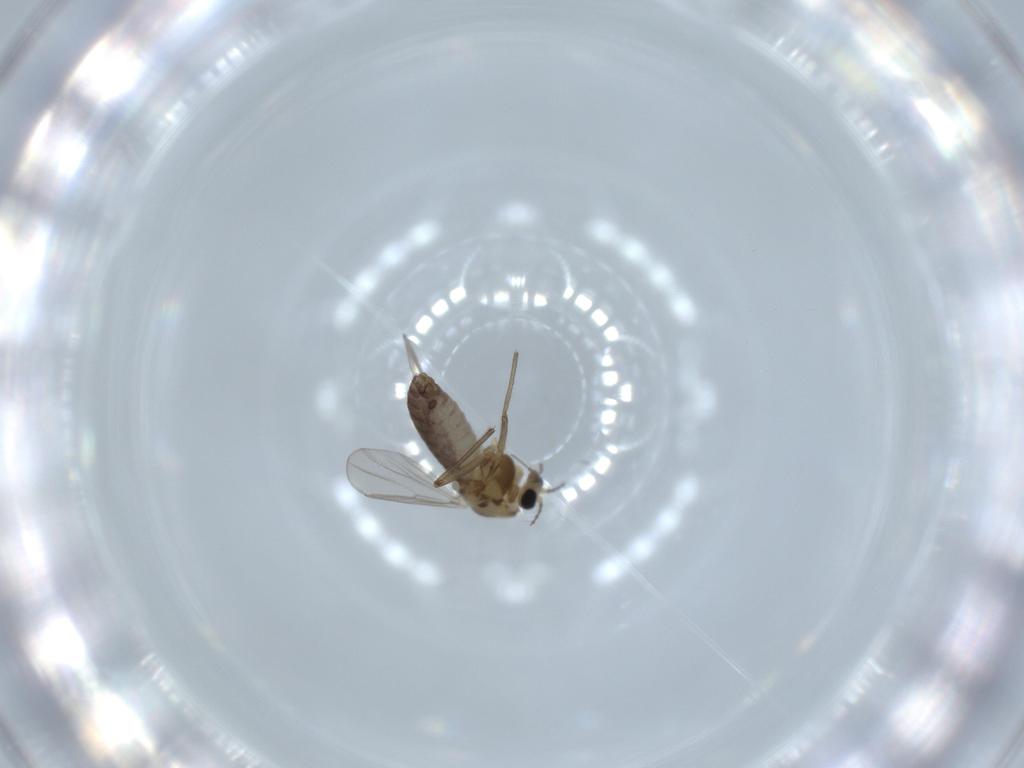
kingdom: Animalia
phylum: Arthropoda
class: Insecta
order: Diptera
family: Chironomidae
